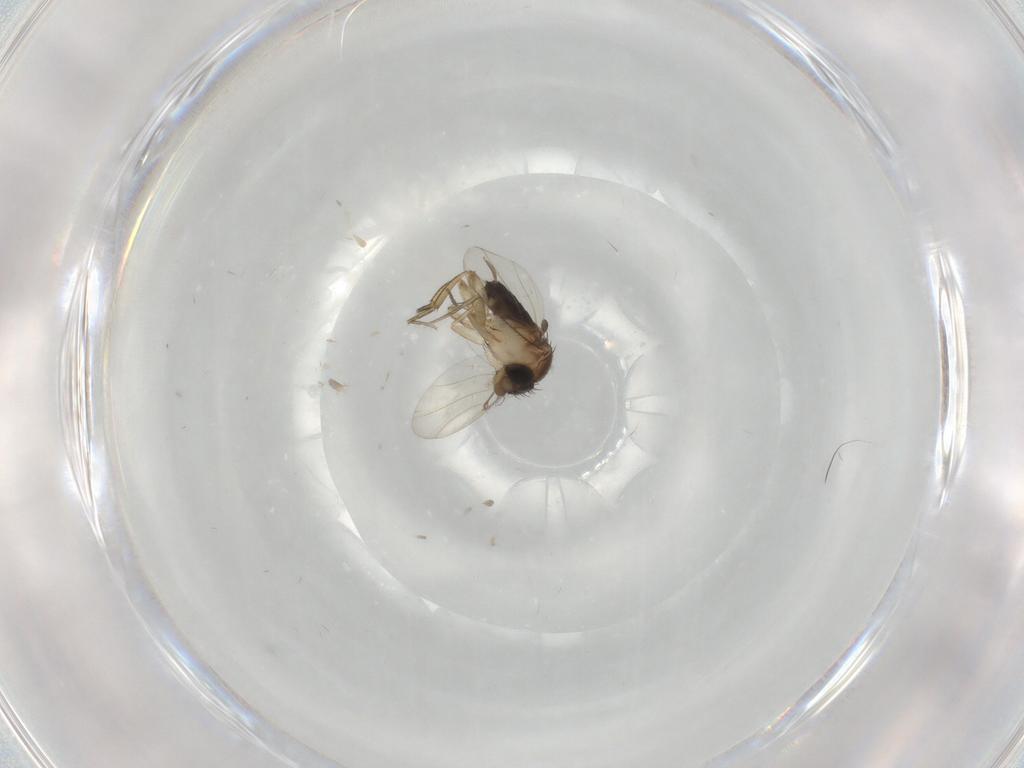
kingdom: Animalia
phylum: Arthropoda
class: Insecta
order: Diptera
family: Phoridae
